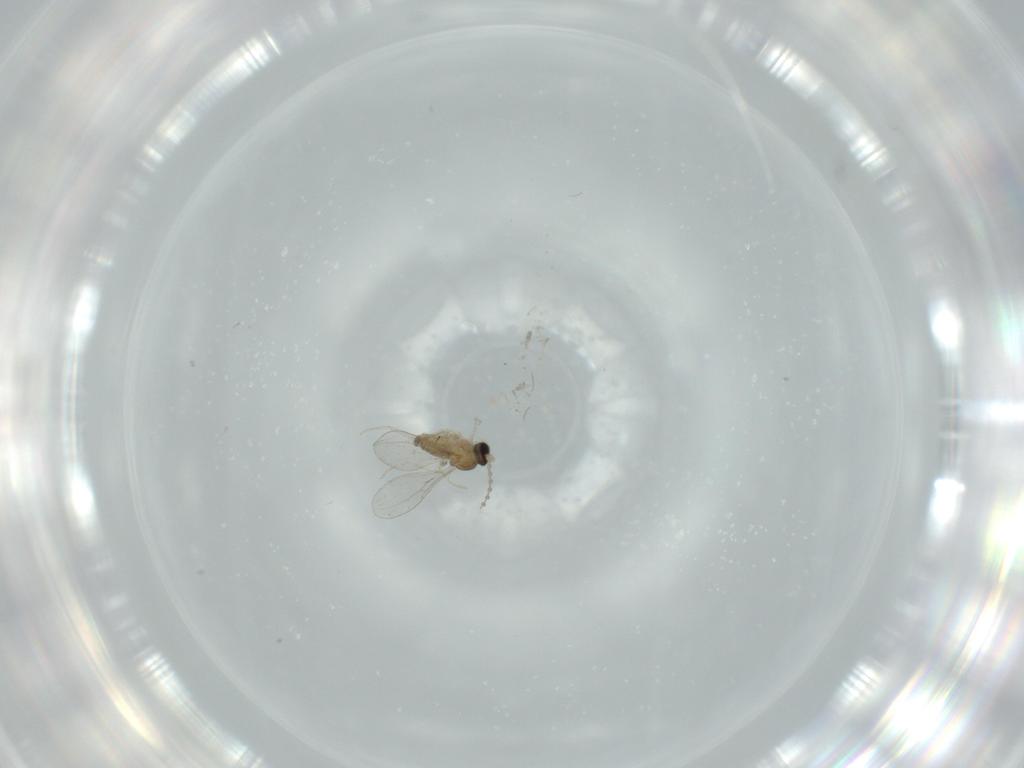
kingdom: Animalia
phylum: Arthropoda
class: Insecta
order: Diptera
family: Cecidomyiidae
